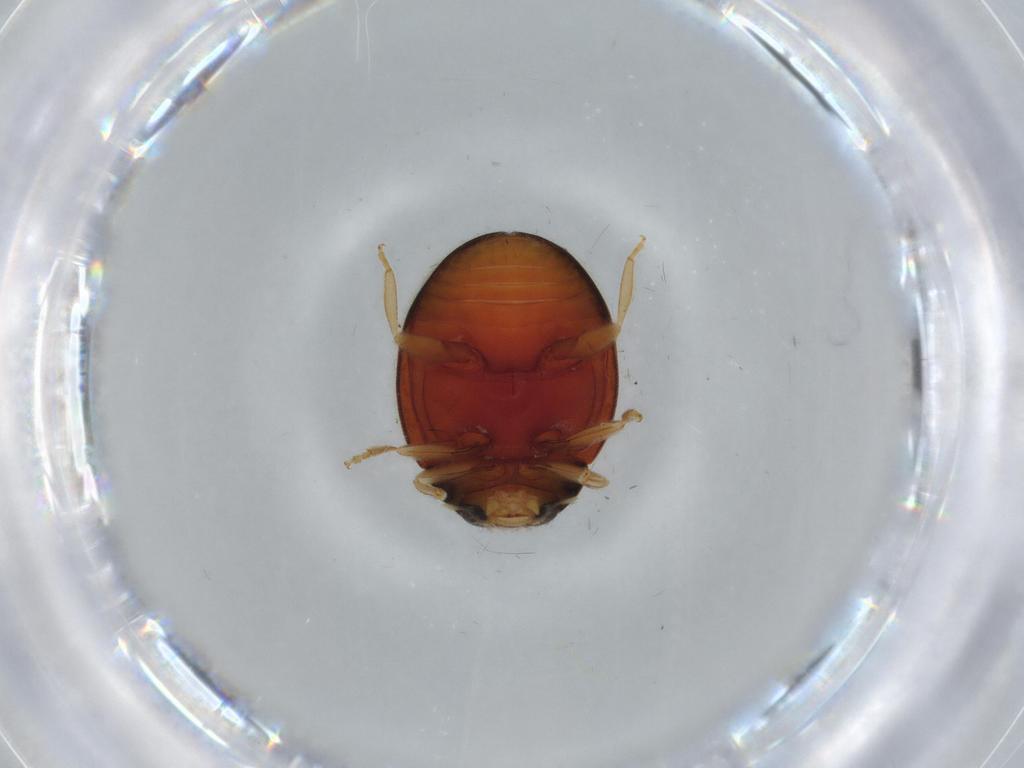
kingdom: Animalia
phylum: Arthropoda
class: Insecta
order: Coleoptera
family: Coccinellidae
